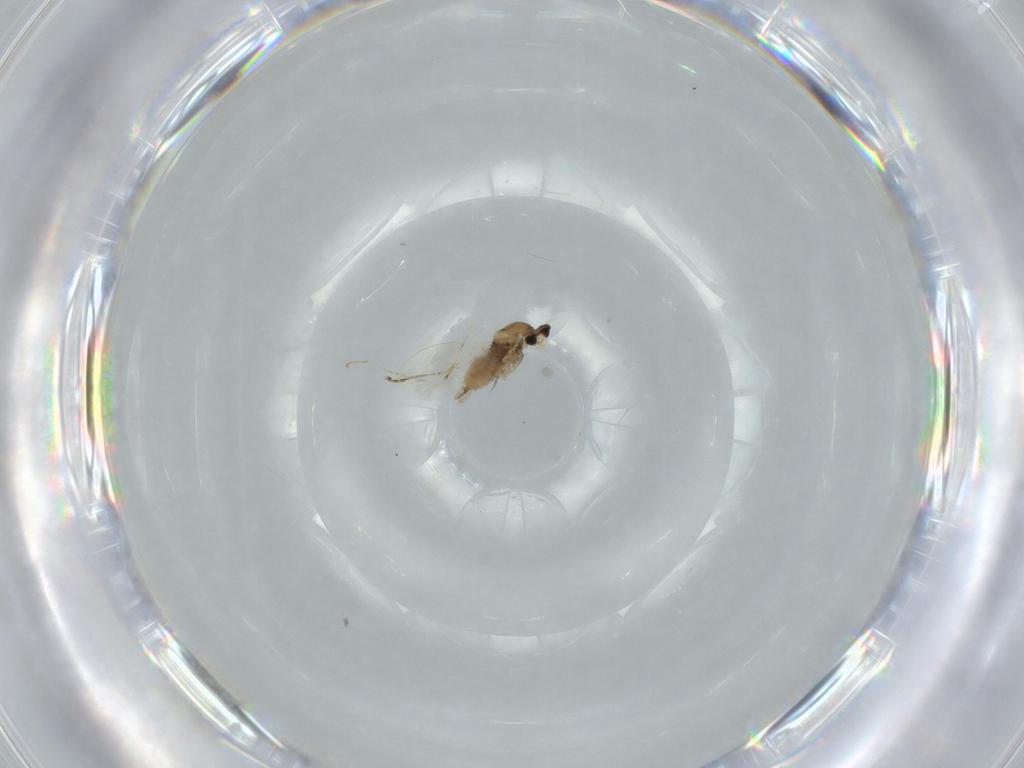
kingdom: Animalia
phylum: Arthropoda
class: Insecta
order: Diptera
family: Cecidomyiidae
